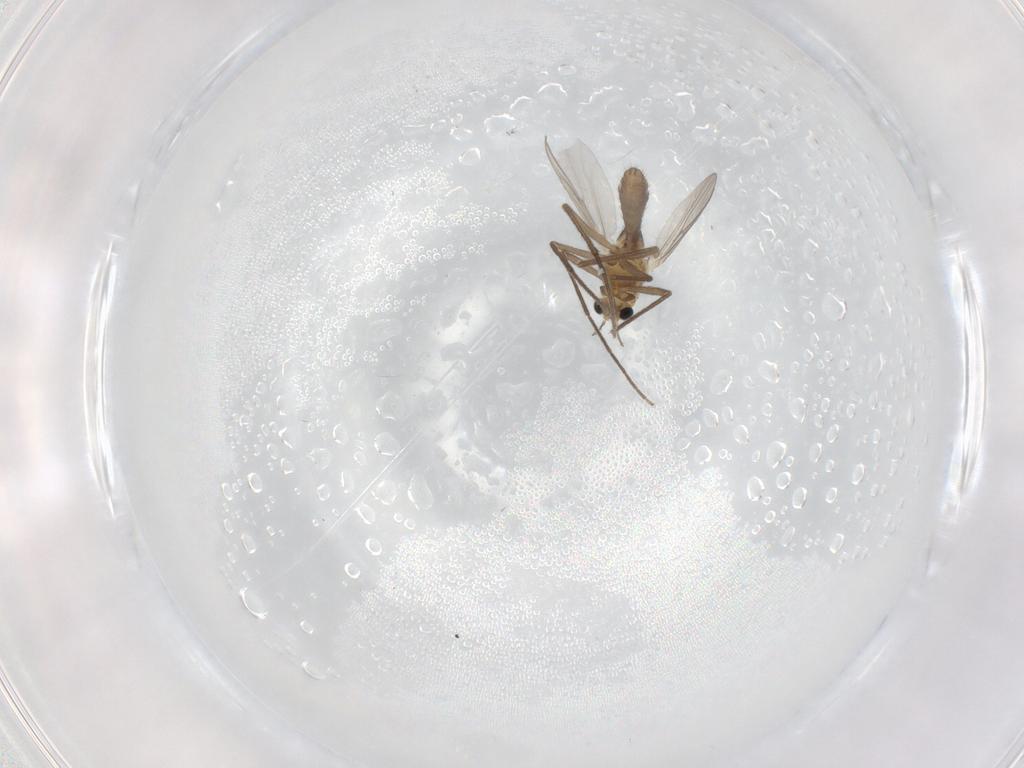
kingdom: Animalia
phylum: Arthropoda
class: Insecta
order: Diptera
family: Chironomidae
